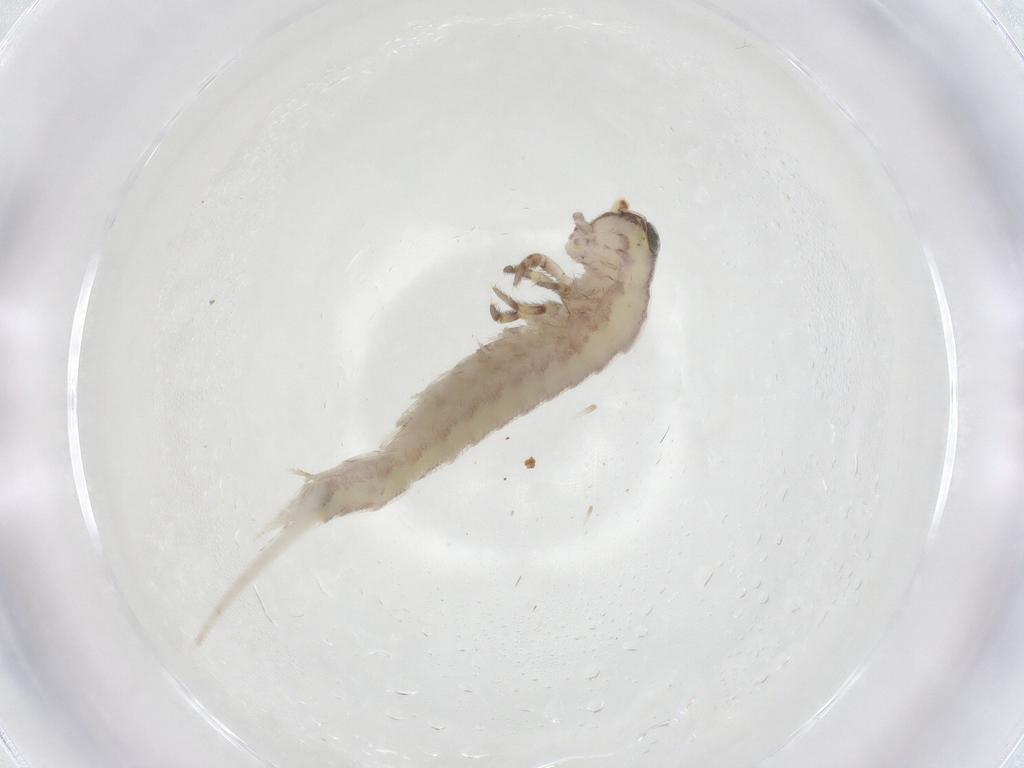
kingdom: Animalia
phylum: Arthropoda
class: Insecta
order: Archaeognatha
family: Meinertellidae
